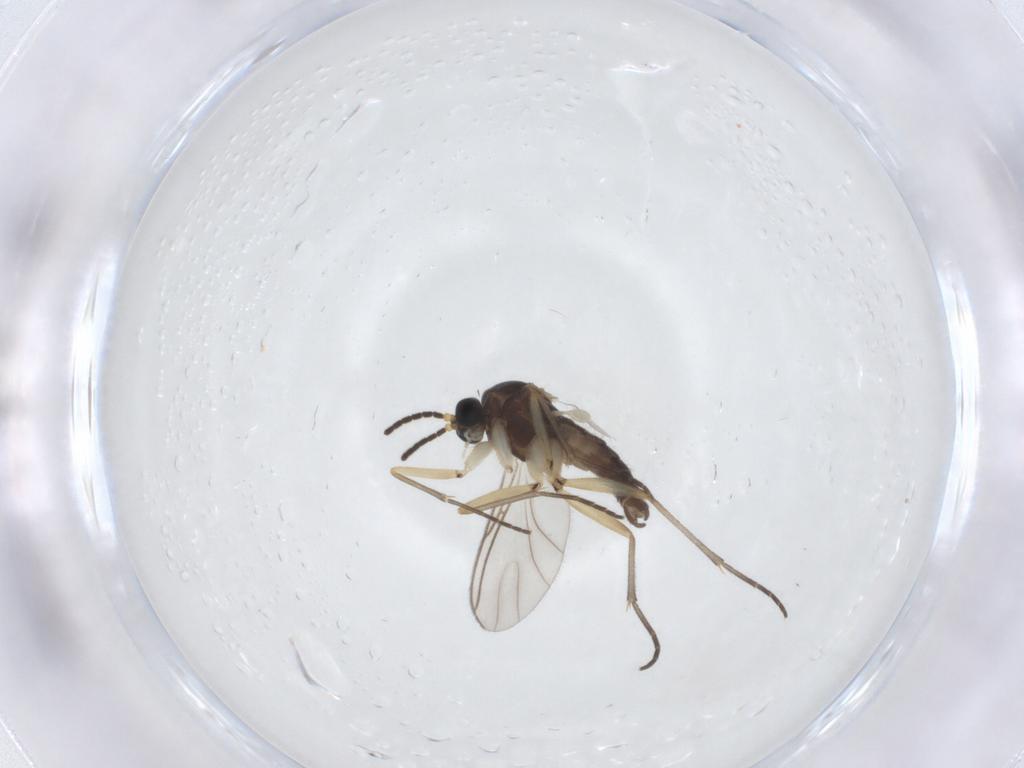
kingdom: Animalia
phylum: Arthropoda
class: Insecta
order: Diptera
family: Sciaridae
